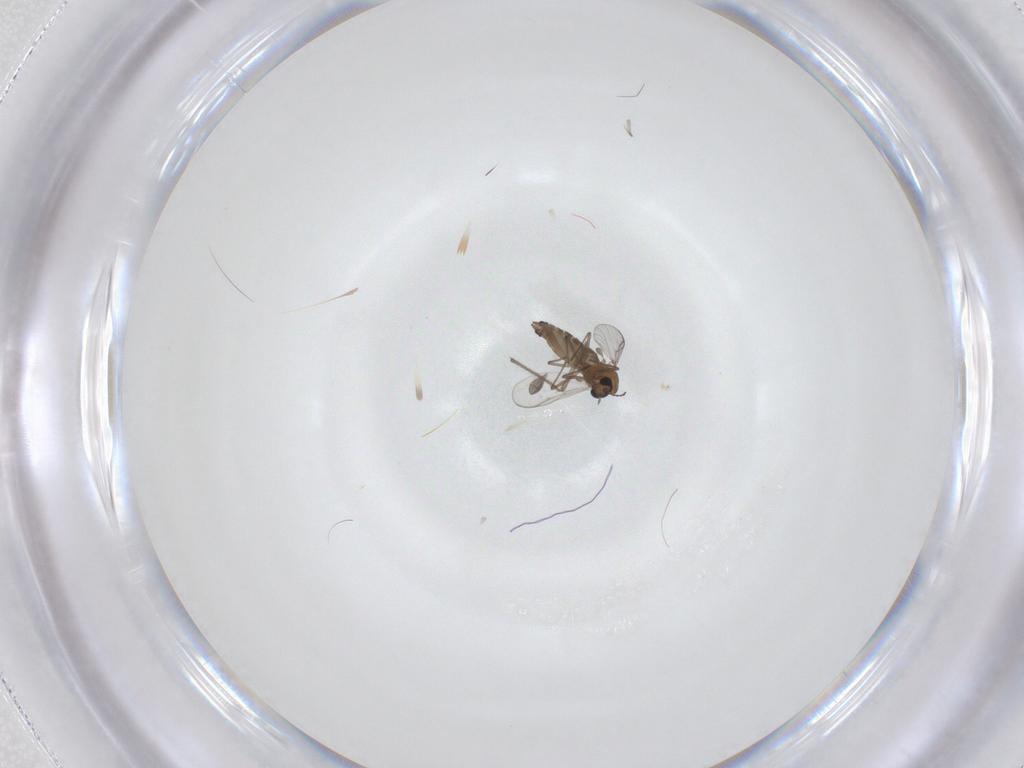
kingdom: Animalia
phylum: Arthropoda
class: Insecta
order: Diptera
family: Chironomidae
